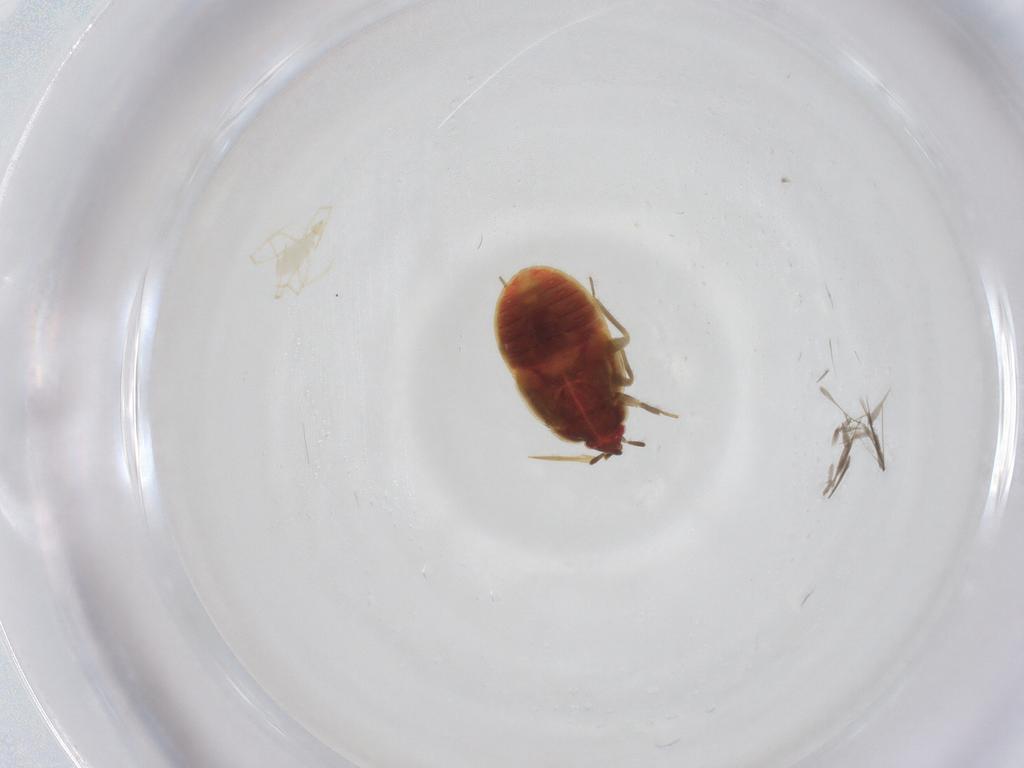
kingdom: Animalia
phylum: Arthropoda
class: Insecta
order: Hemiptera
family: Anthocoridae
